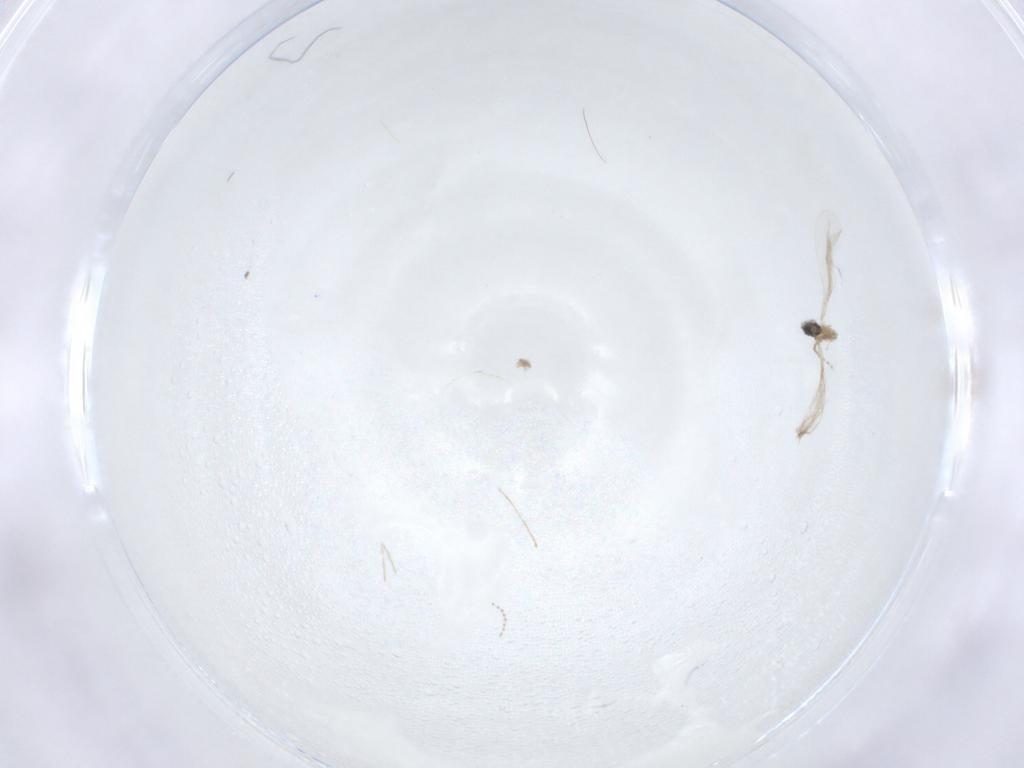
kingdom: Animalia
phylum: Arthropoda
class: Insecta
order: Diptera
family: Cecidomyiidae
